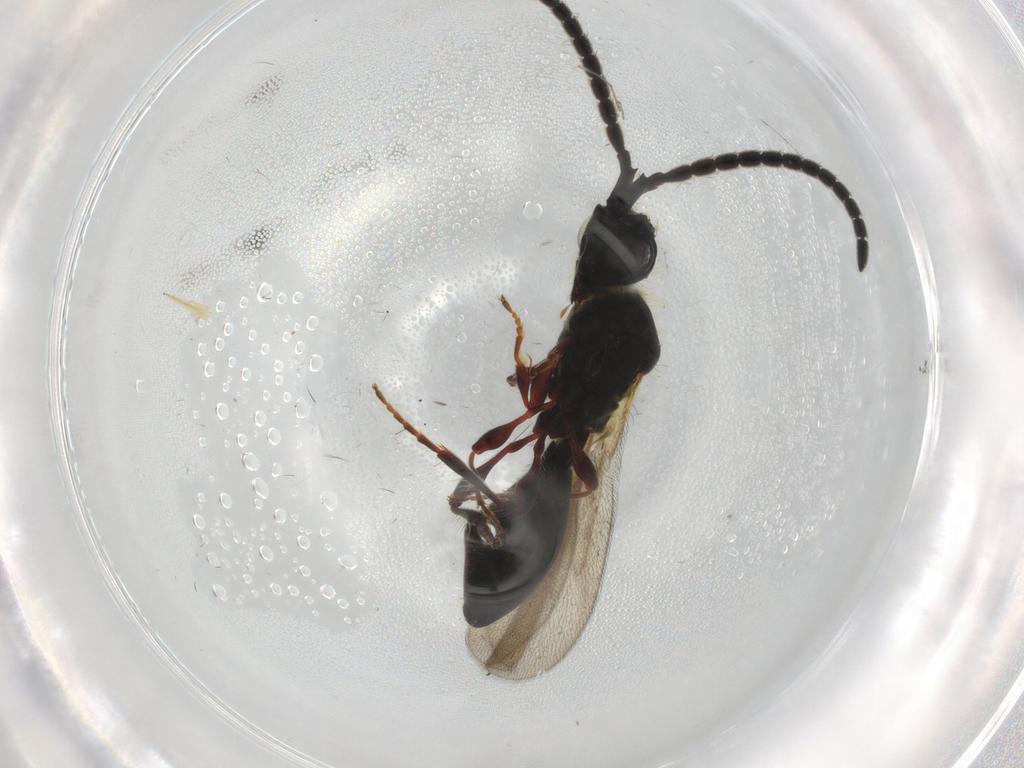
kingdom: Animalia
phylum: Arthropoda
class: Insecta
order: Hymenoptera
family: Diapriidae
